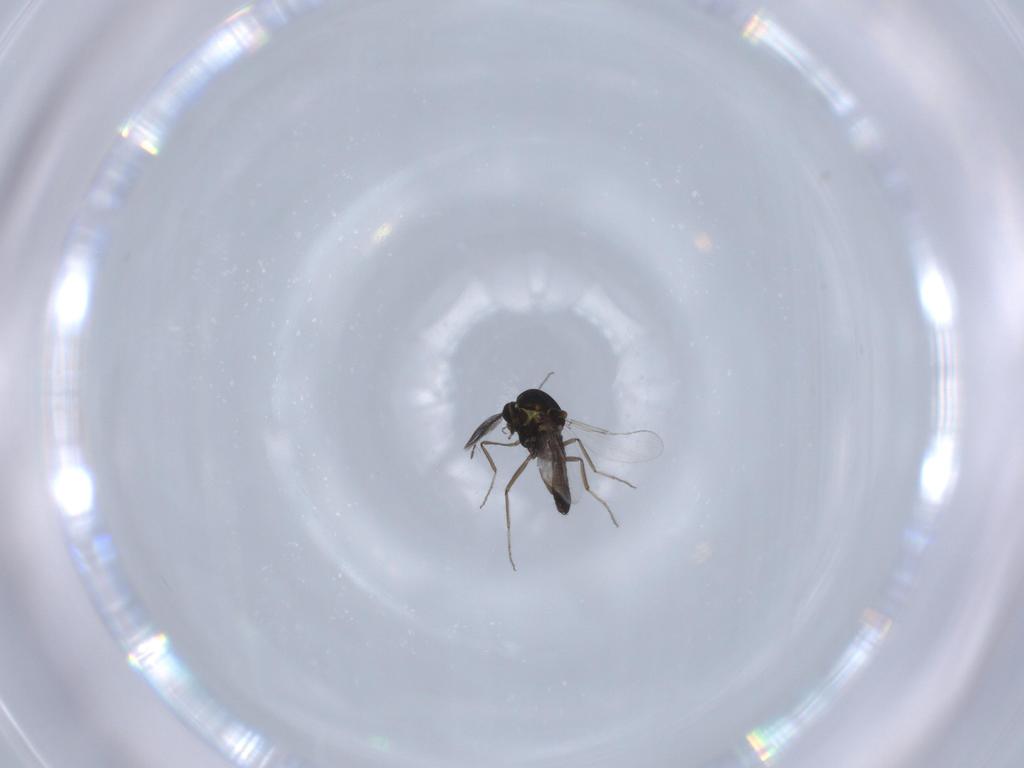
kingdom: Animalia
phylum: Arthropoda
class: Insecta
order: Diptera
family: Ceratopogonidae
